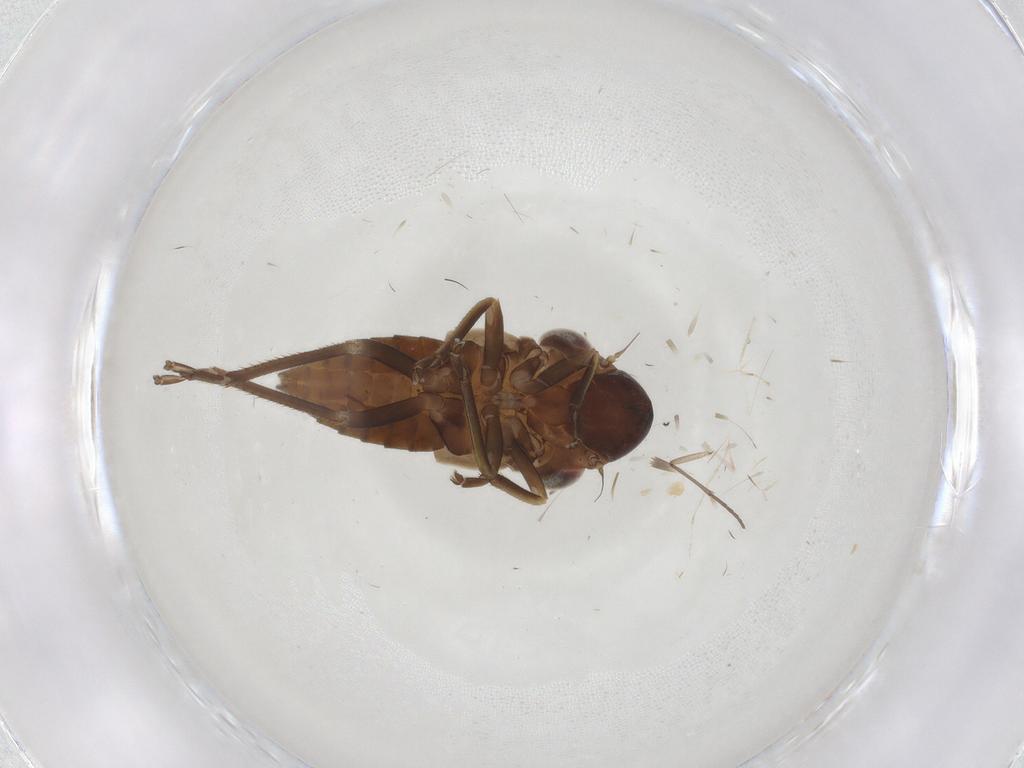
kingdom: Animalia
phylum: Arthropoda
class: Insecta
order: Hemiptera
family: Cicadellidae
